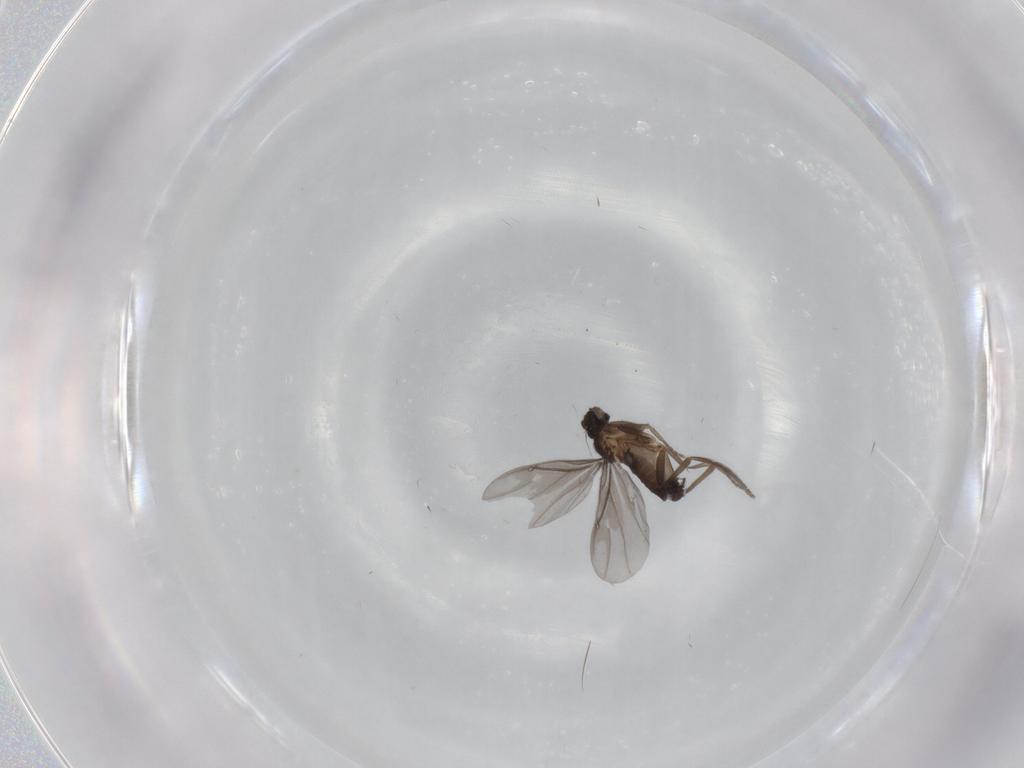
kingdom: Animalia
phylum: Arthropoda
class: Insecta
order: Diptera
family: Phoridae
